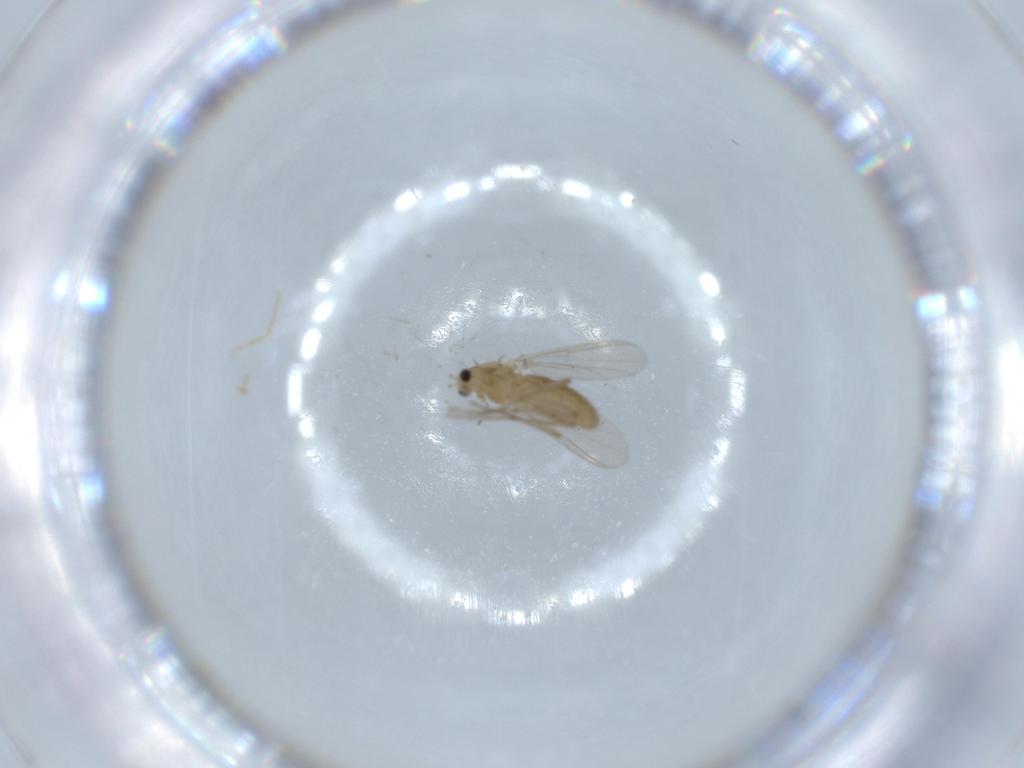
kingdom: Animalia
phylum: Arthropoda
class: Insecta
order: Diptera
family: Chironomidae
